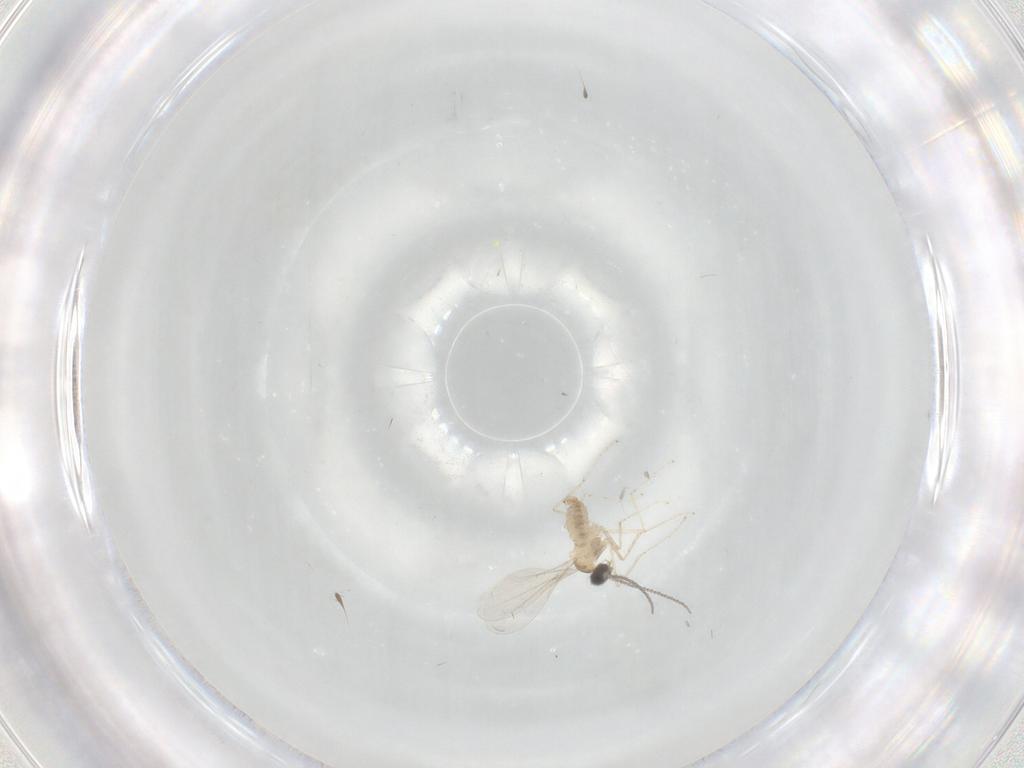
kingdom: Animalia
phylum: Arthropoda
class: Insecta
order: Diptera
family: Cecidomyiidae
